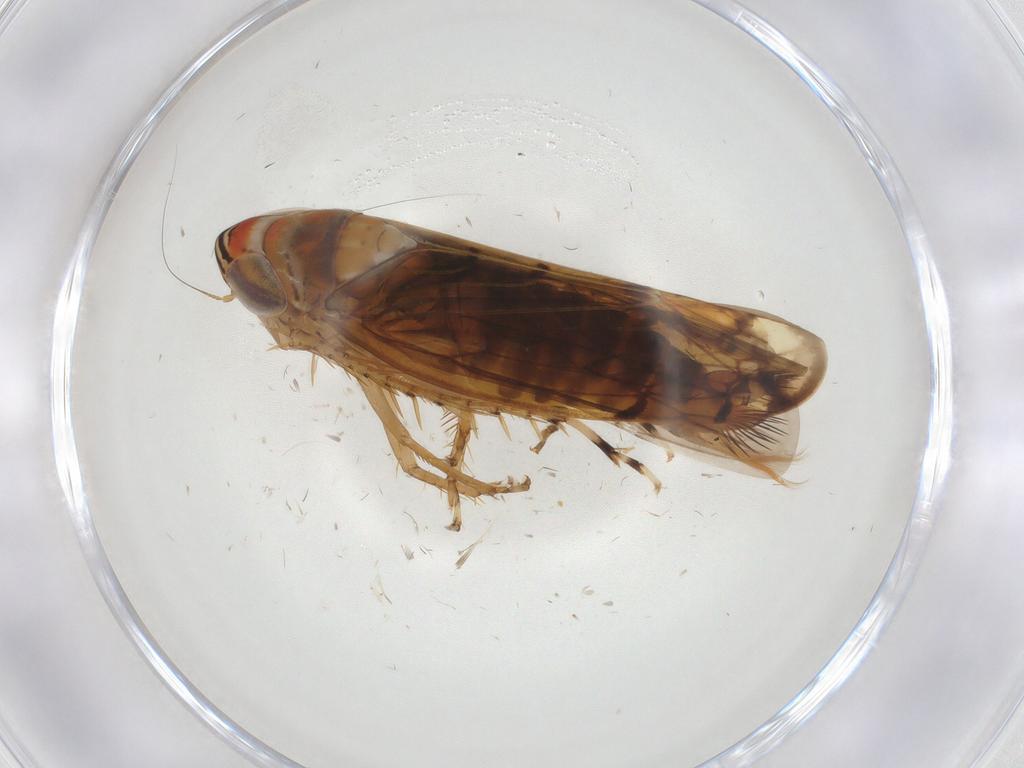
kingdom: Animalia
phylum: Arthropoda
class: Insecta
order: Hemiptera
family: Cicadellidae
